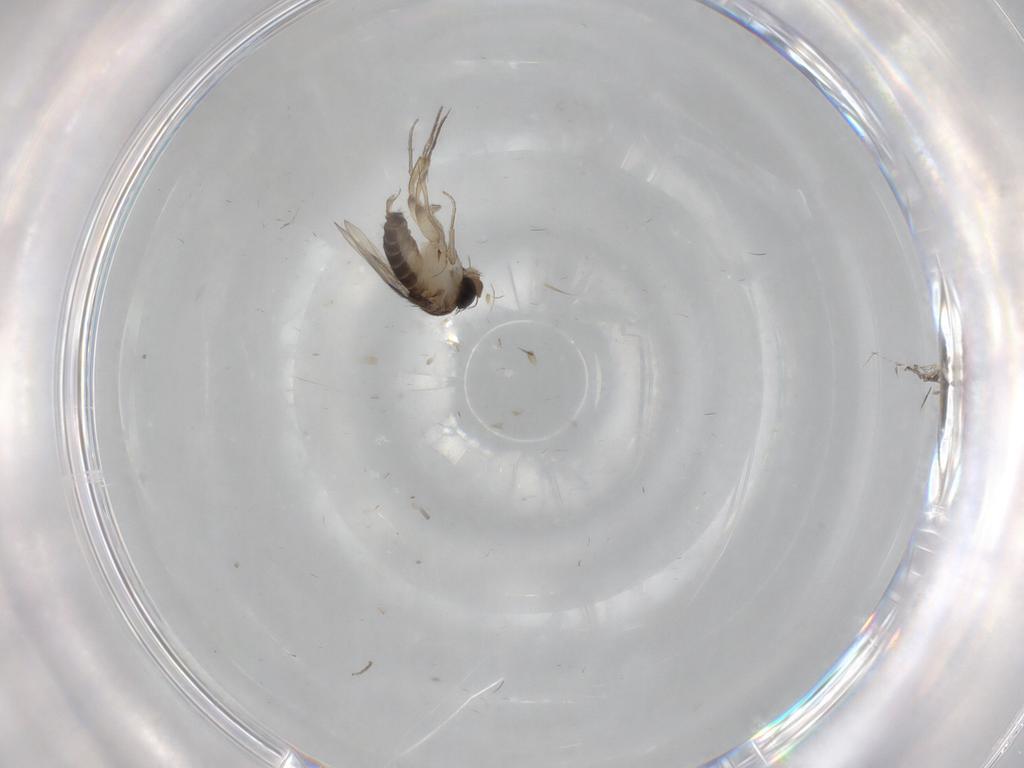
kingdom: Animalia
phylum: Arthropoda
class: Insecta
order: Diptera
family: Phoridae
